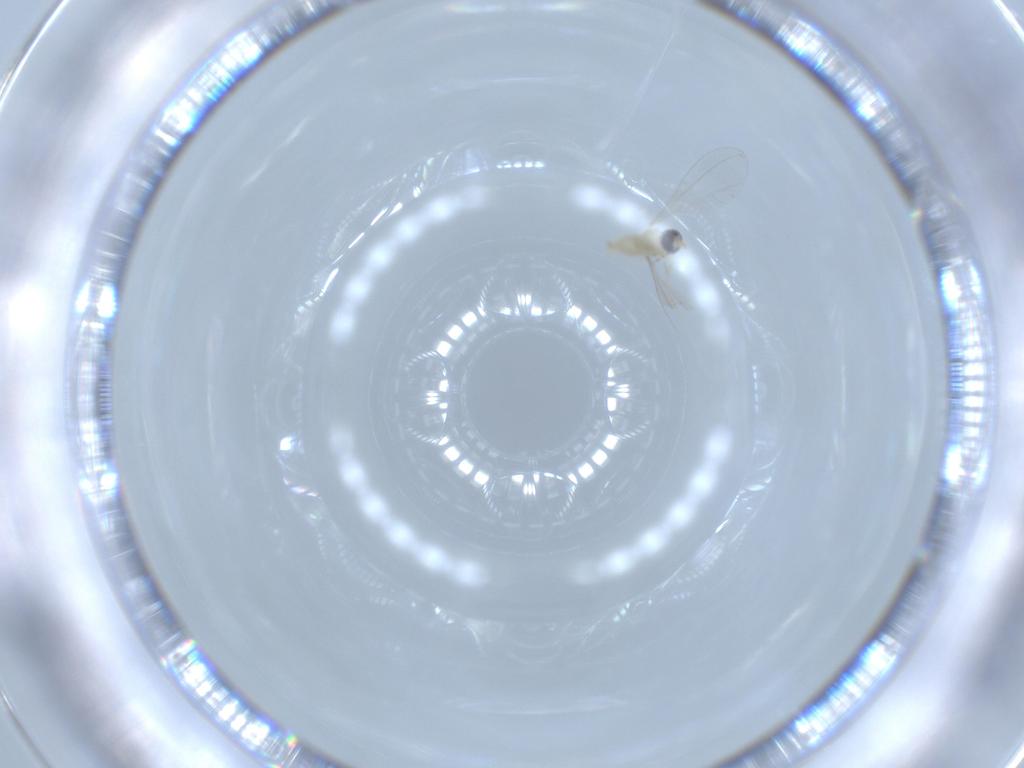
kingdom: Animalia
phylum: Arthropoda
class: Insecta
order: Diptera
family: Cecidomyiidae
